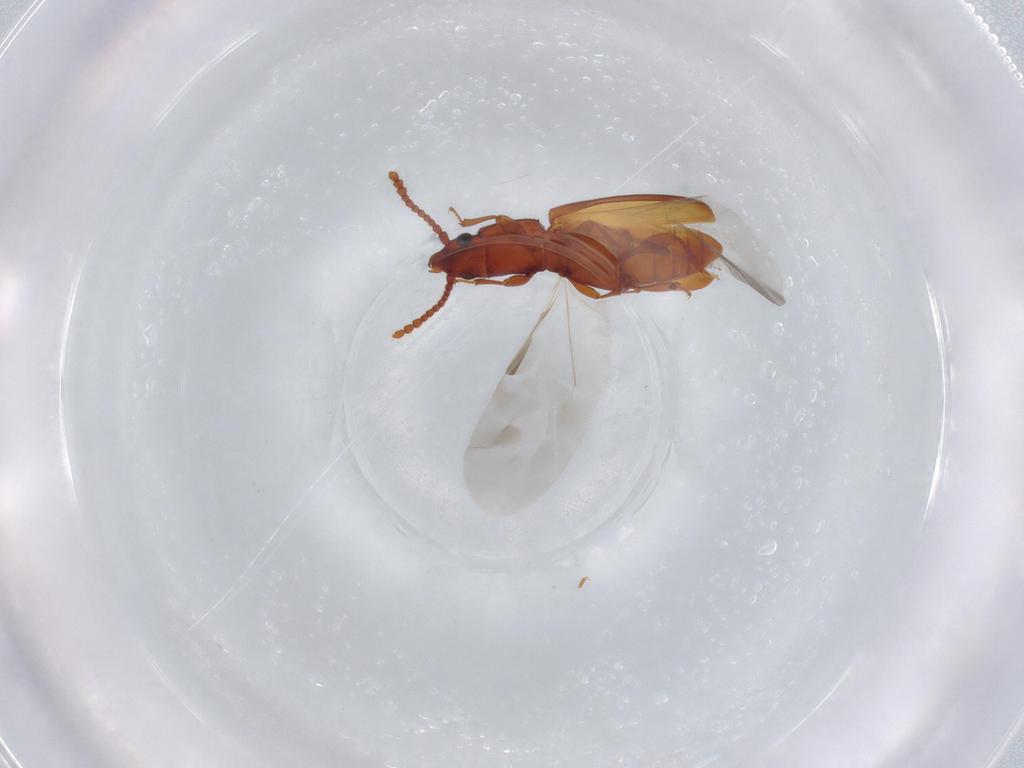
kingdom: Animalia
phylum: Arthropoda
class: Insecta
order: Coleoptera
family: Laemophloeidae
